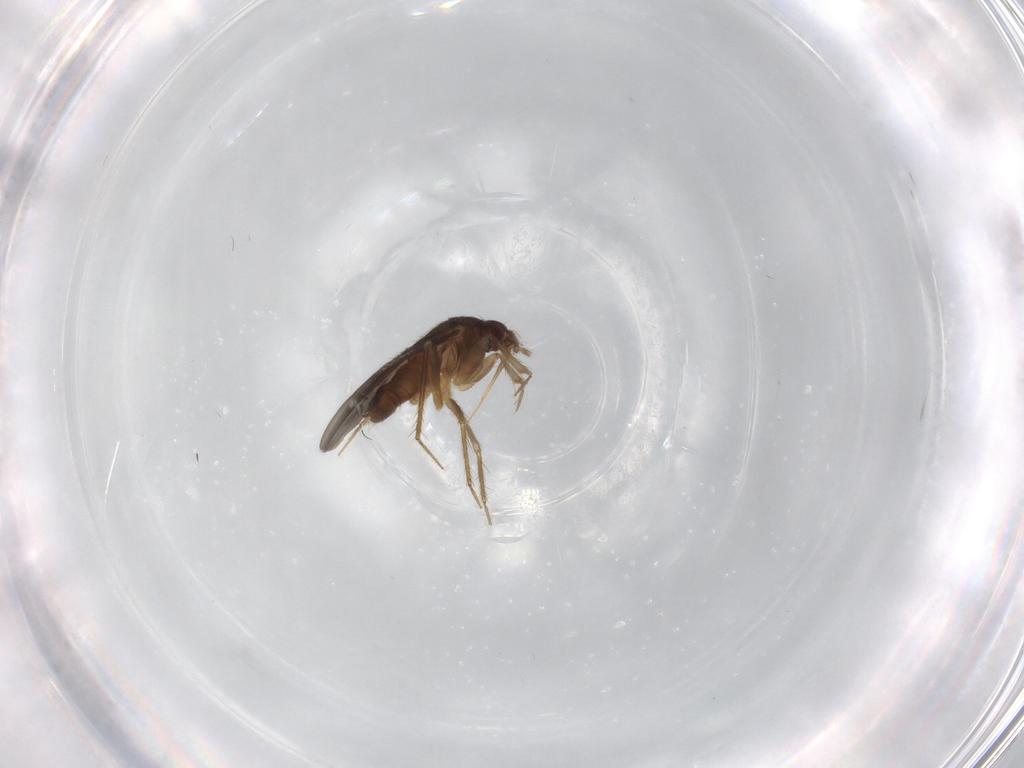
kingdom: Animalia
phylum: Arthropoda
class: Insecta
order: Hemiptera
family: Ceratocombidae
